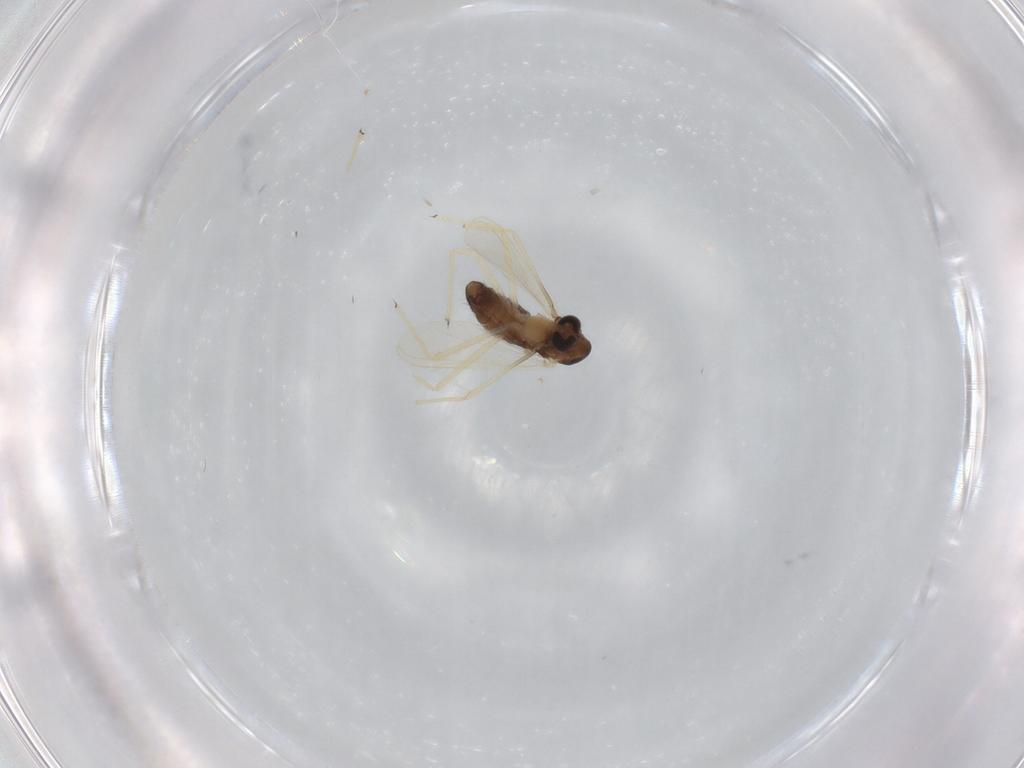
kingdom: Animalia
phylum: Arthropoda
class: Insecta
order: Diptera
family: Chironomidae
